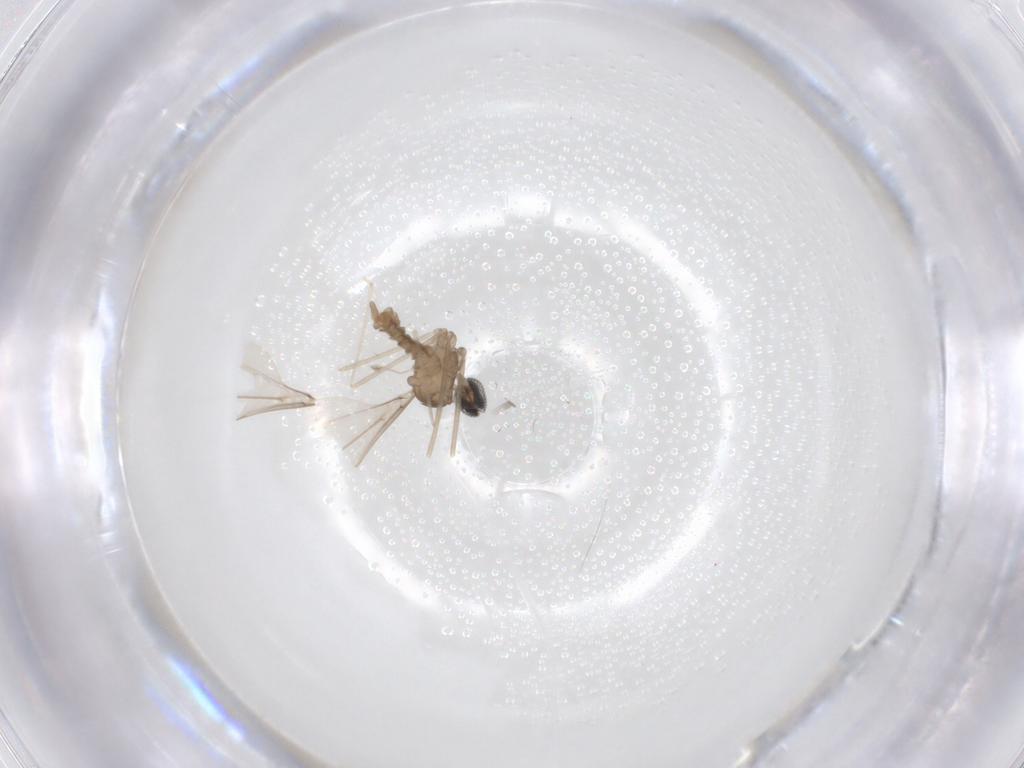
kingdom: Animalia
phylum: Arthropoda
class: Insecta
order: Diptera
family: Cecidomyiidae
